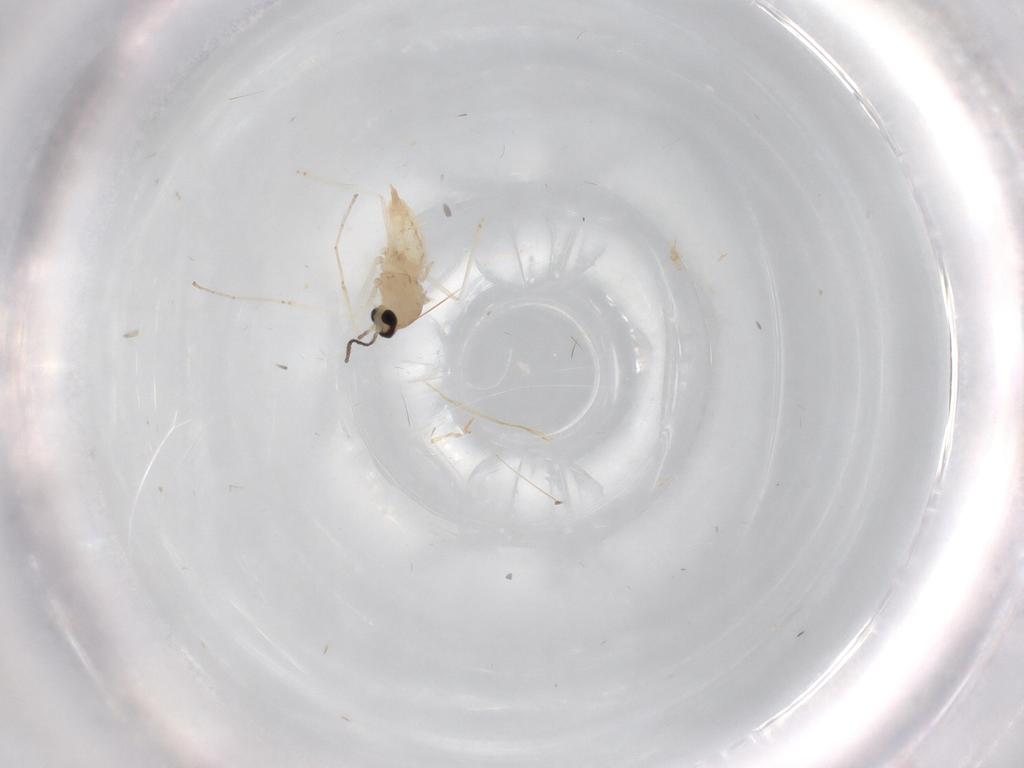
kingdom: Animalia
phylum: Arthropoda
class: Insecta
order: Diptera
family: Cecidomyiidae
